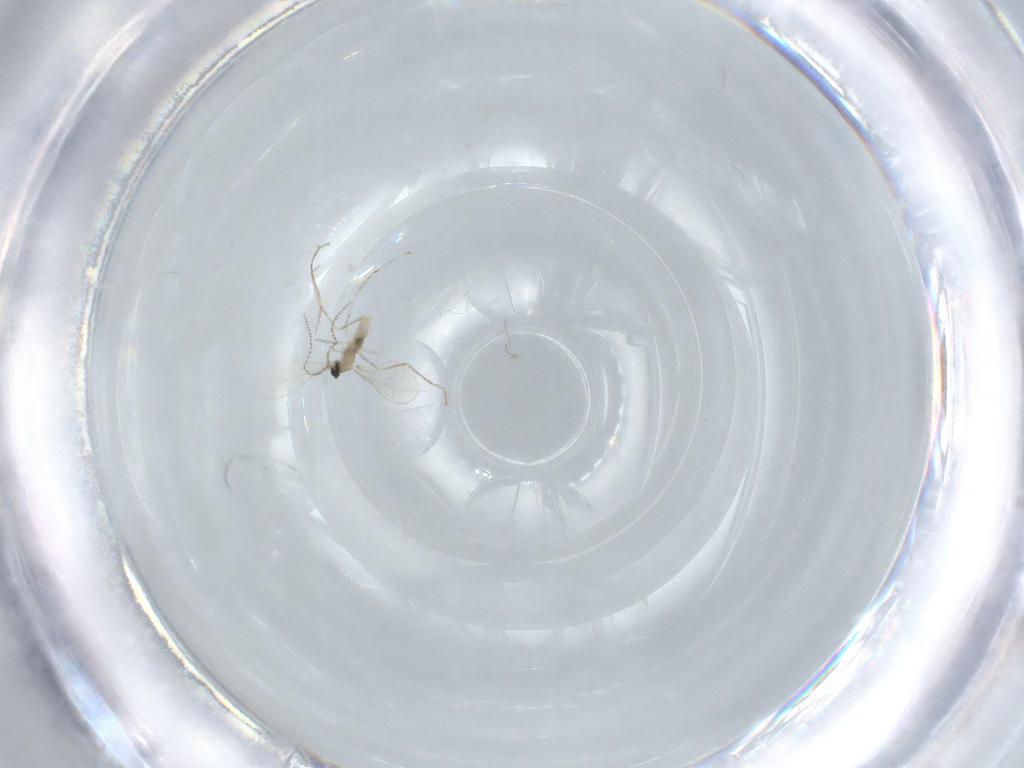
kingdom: Animalia
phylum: Arthropoda
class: Insecta
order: Diptera
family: Cecidomyiidae
